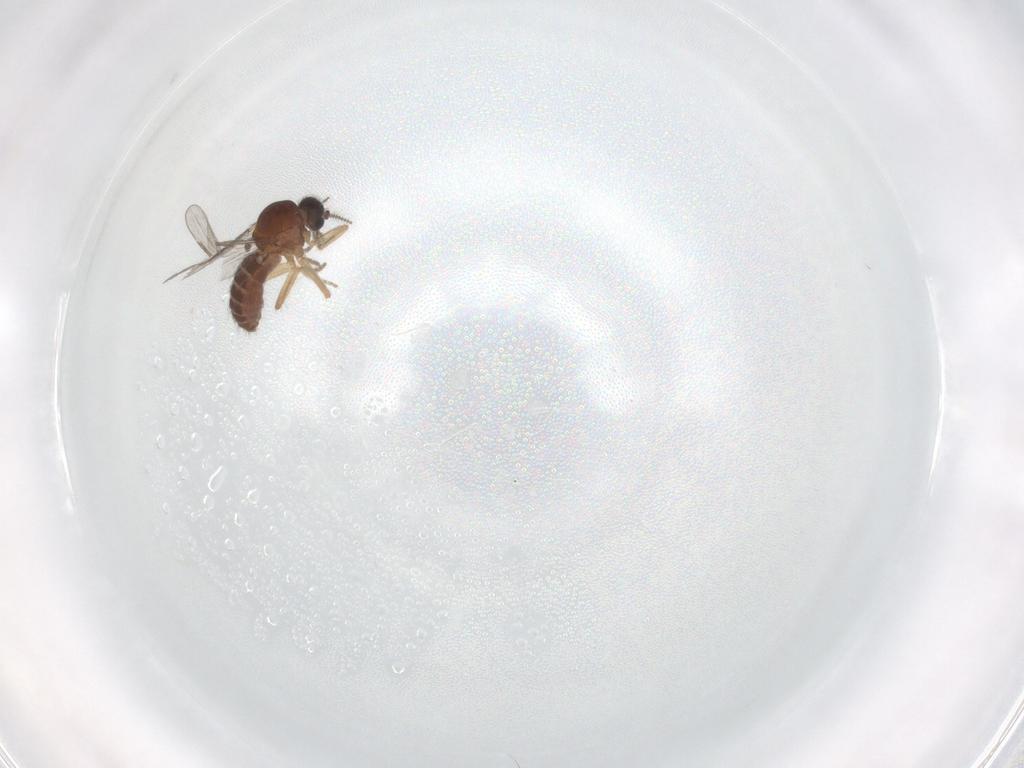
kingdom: Animalia
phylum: Arthropoda
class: Insecta
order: Diptera
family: Ceratopogonidae
